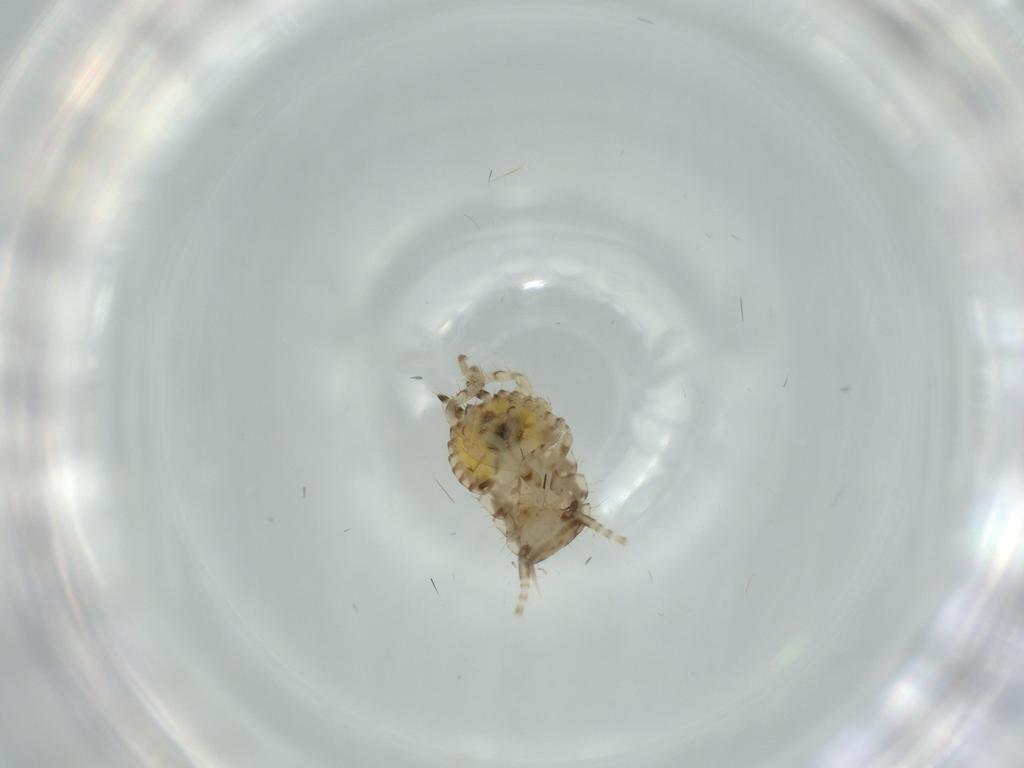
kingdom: Animalia
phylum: Arthropoda
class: Insecta
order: Blattodea
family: Ectobiidae
